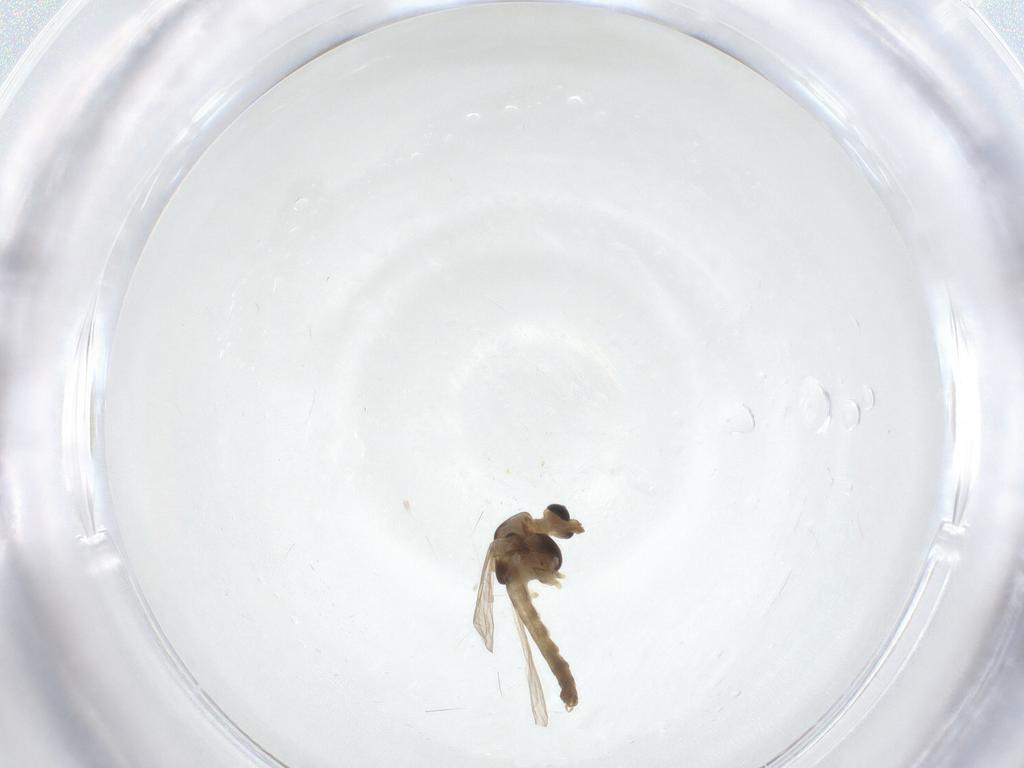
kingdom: Animalia
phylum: Arthropoda
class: Insecta
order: Diptera
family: Chironomidae
